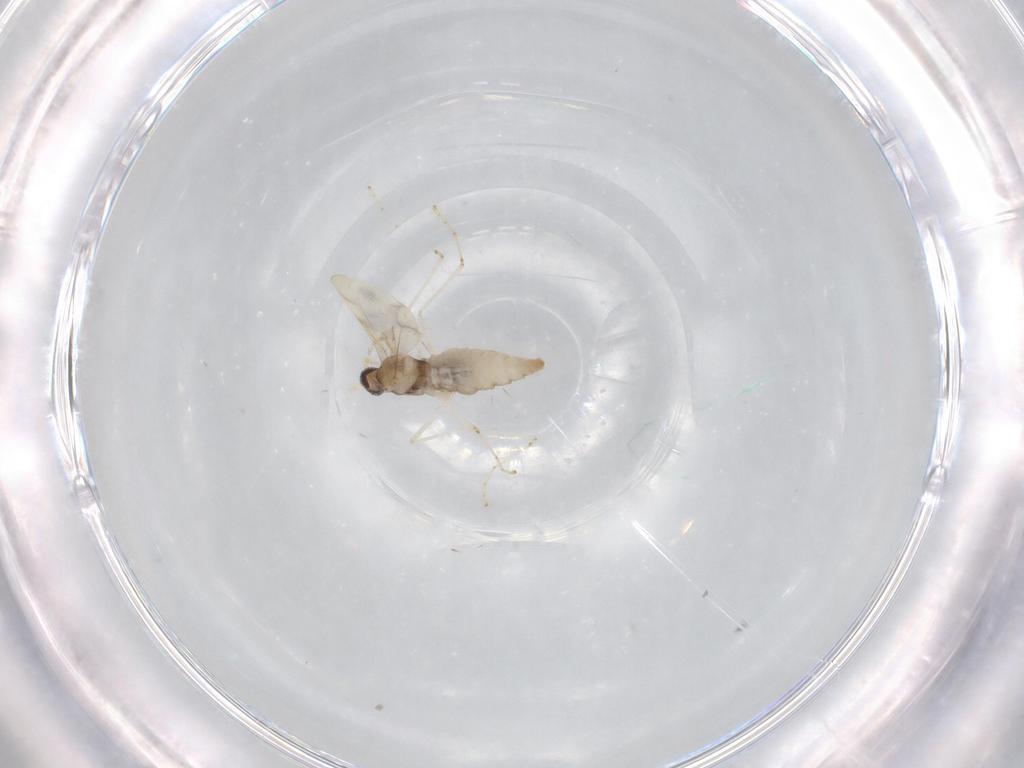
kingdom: Animalia
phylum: Arthropoda
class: Insecta
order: Diptera
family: Cecidomyiidae
